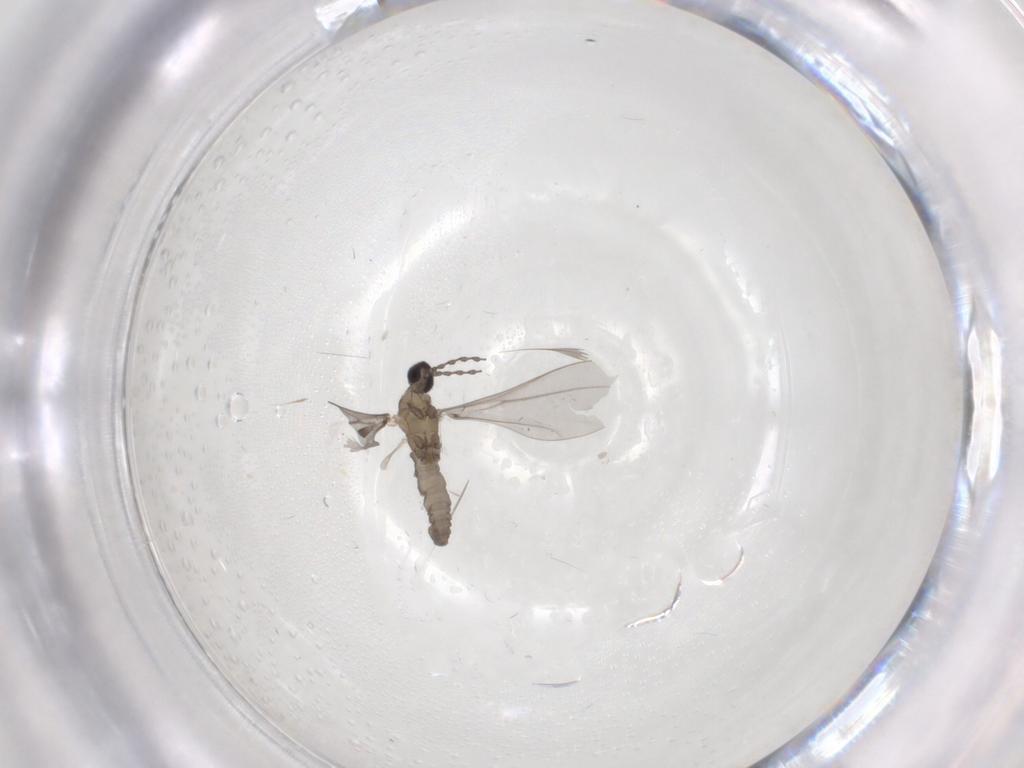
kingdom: Animalia
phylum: Arthropoda
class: Insecta
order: Diptera
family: Cecidomyiidae
